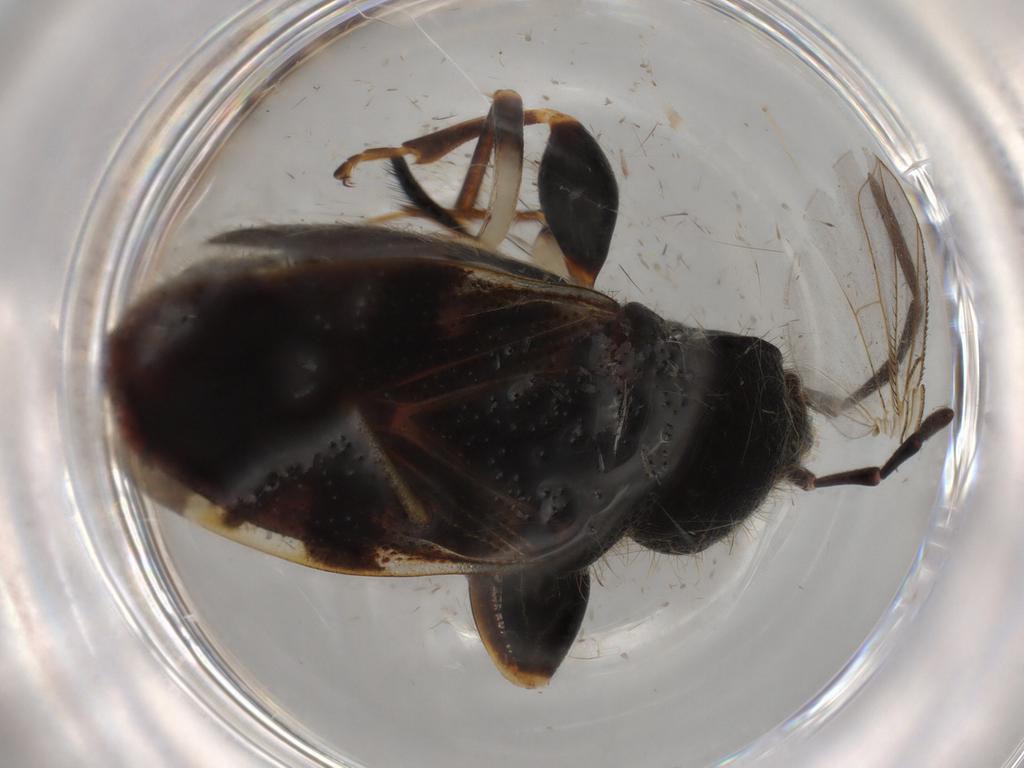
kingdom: Animalia
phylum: Arthropoda
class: Insecta
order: Hemiptera
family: Rhyparochromidae
